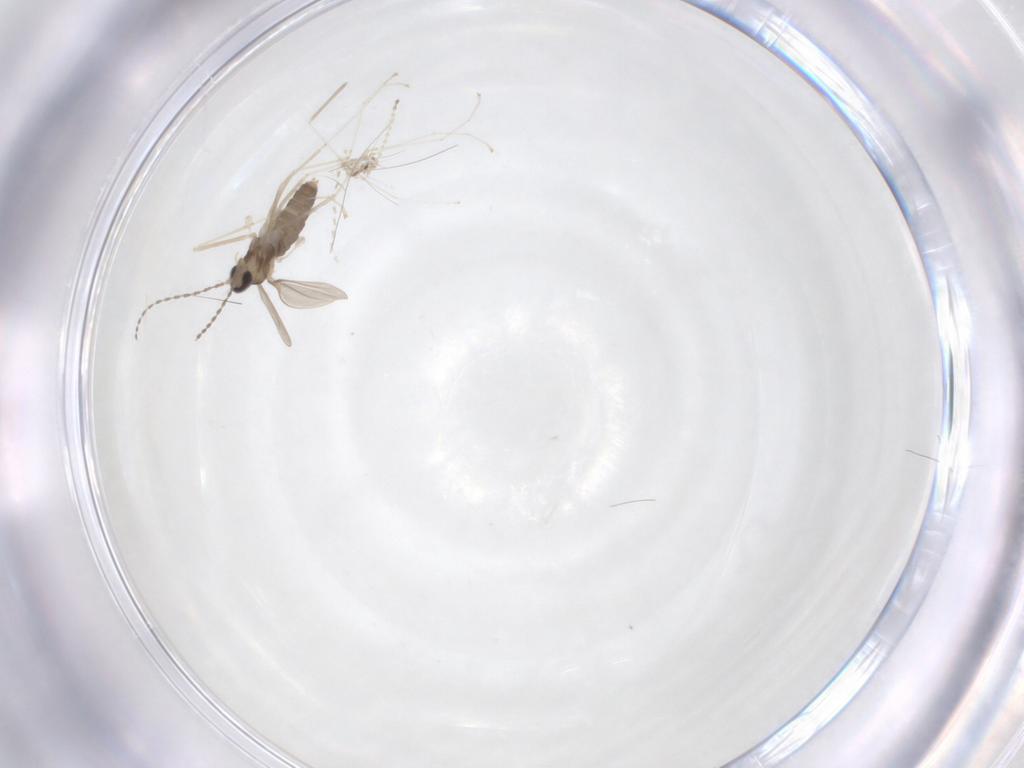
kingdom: Animalia
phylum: Arthropoda
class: Insecta
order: Diptera
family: Cecidomyiidae
